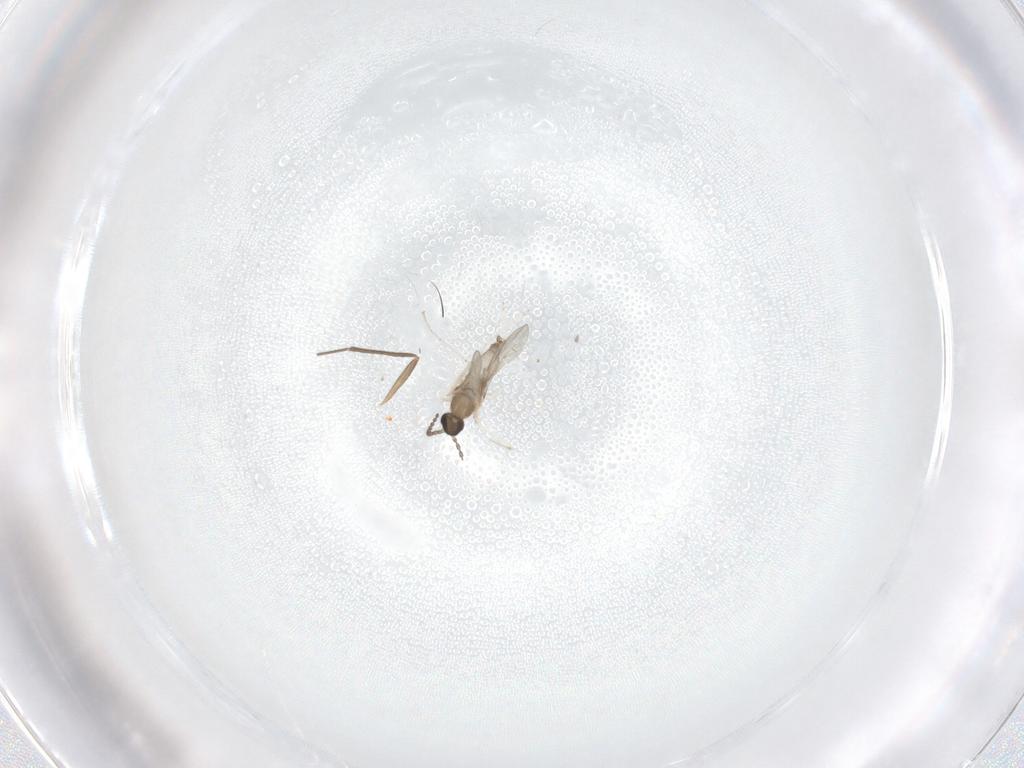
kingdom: Animalia
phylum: Arthropoda
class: Insecta
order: Diptera
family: Chironomidae
